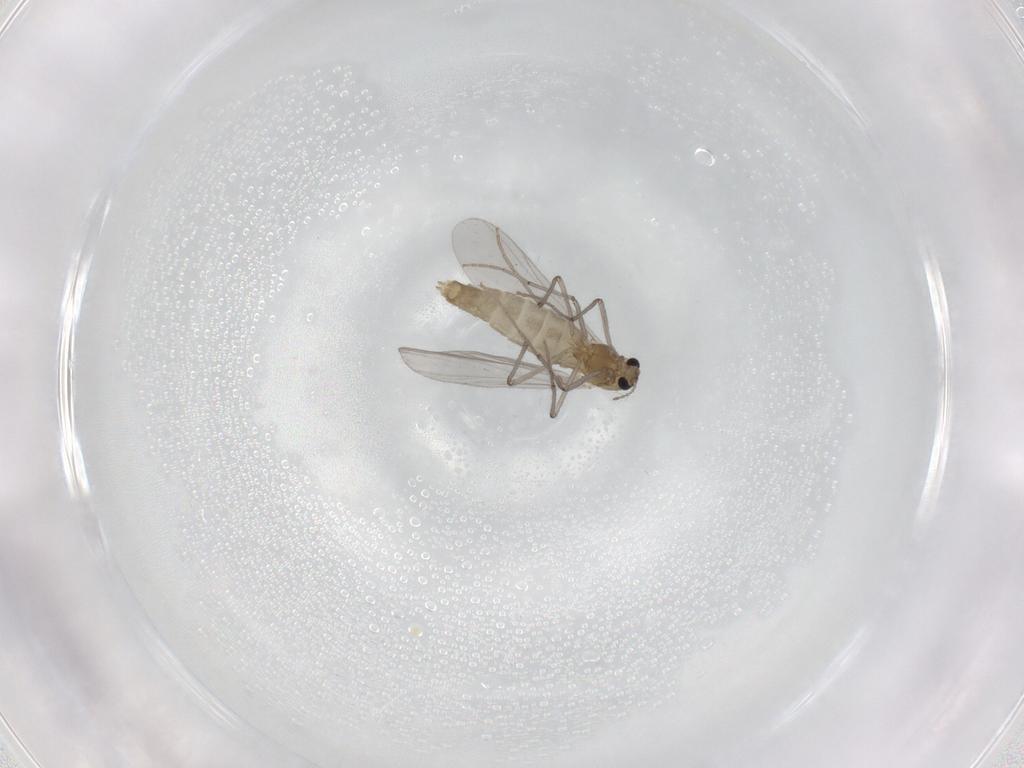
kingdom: Animalia
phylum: Arthropoda
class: Insecta
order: Diptera
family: Chironomidae
